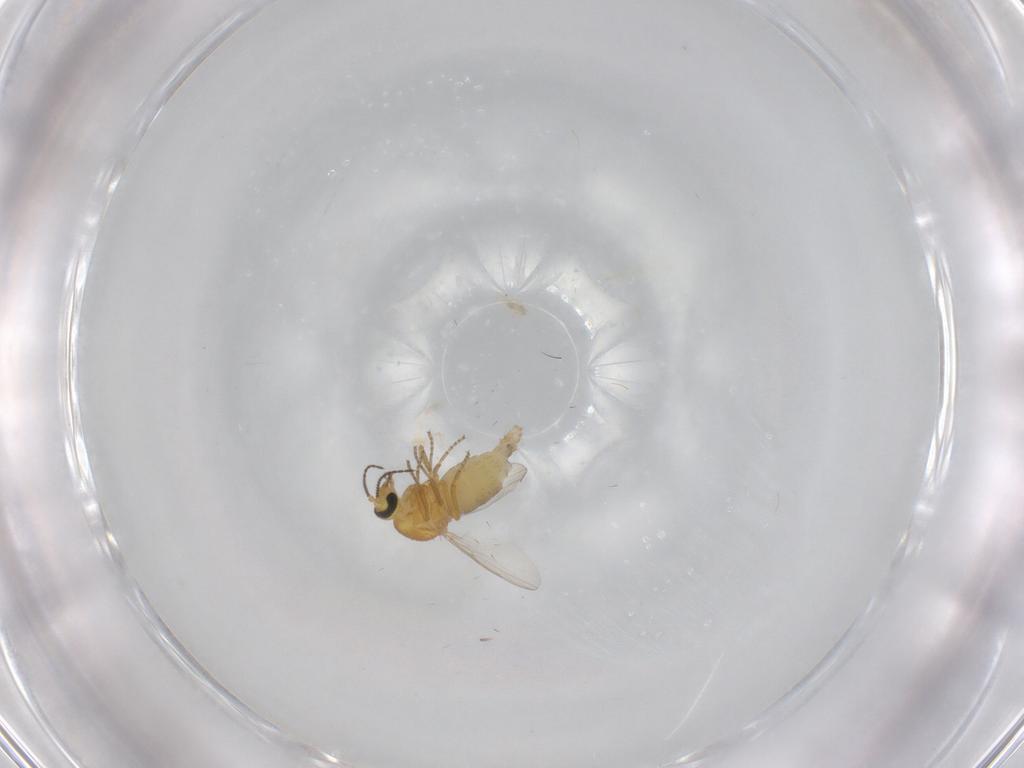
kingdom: Animalia
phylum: Arthropoda
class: Insecta
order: Diptera
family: Ceratopogonidae
